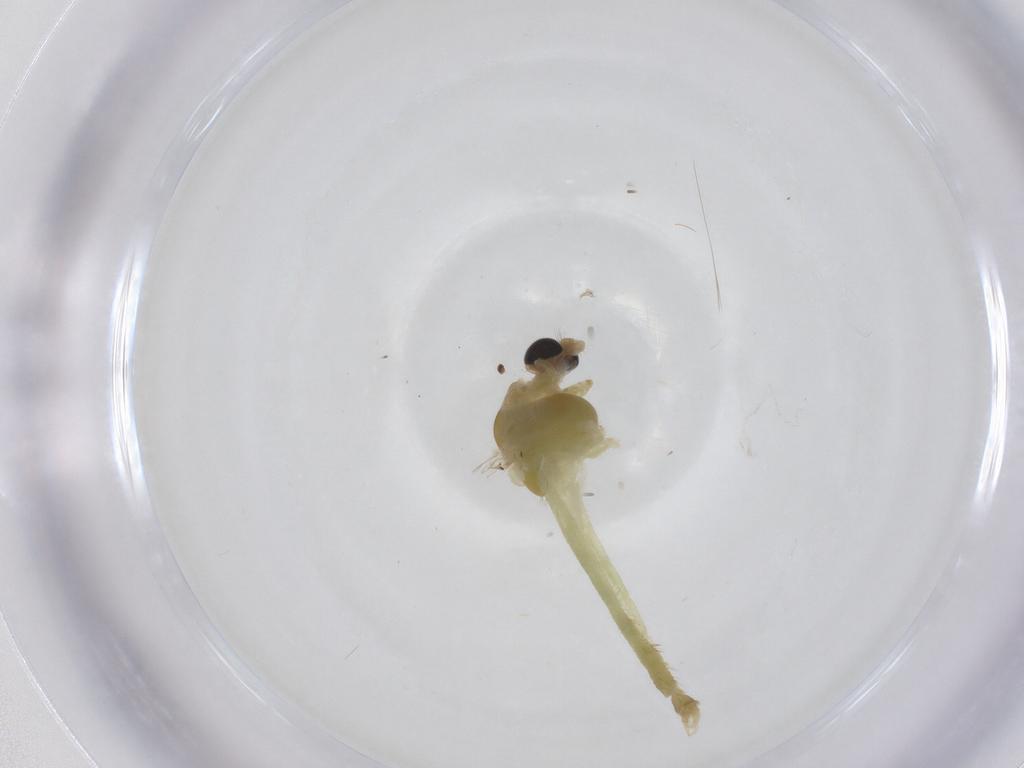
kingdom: Animalia
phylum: Arthropoda
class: Insecta
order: Diptera
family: Chironomidae
